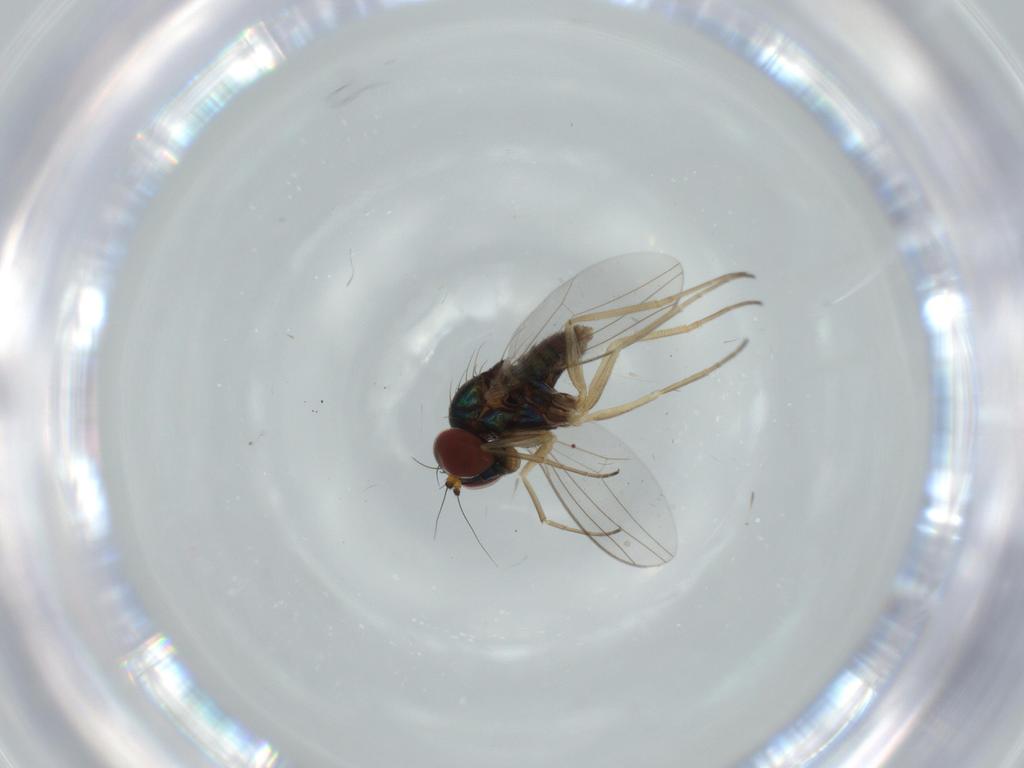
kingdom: Animalia
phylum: Arthropoda
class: Insecta
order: Diptera
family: Dolichopodidae
